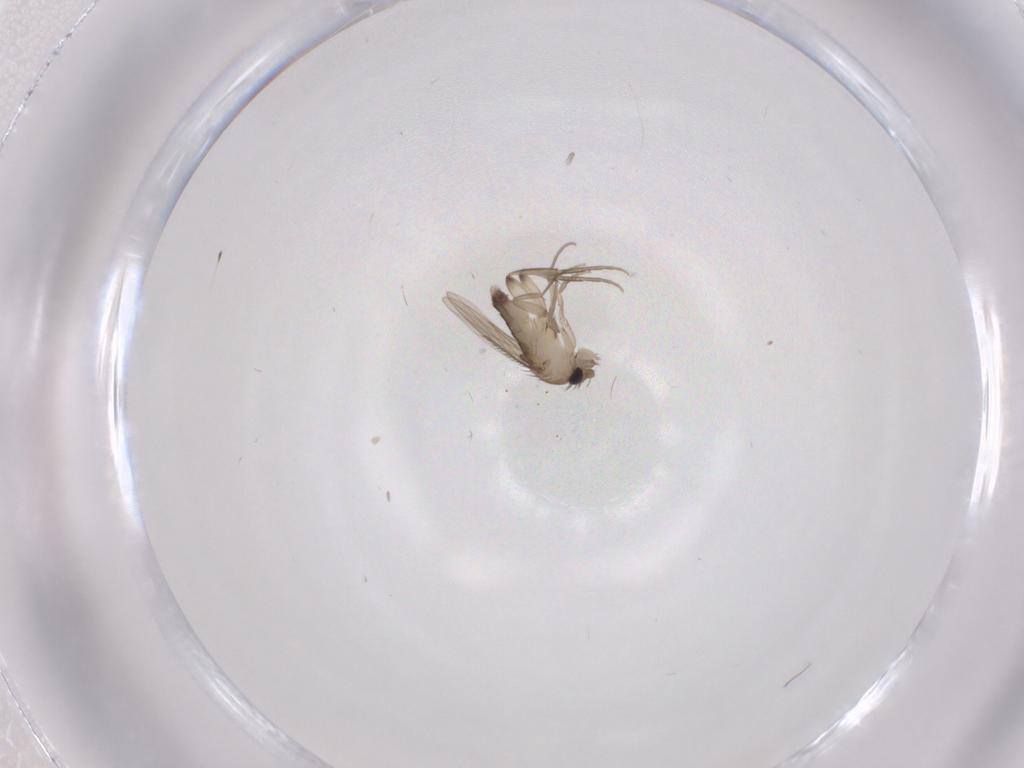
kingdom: Animalia
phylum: Arthropoda
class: Insecta
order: Diptera
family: Phoridae
